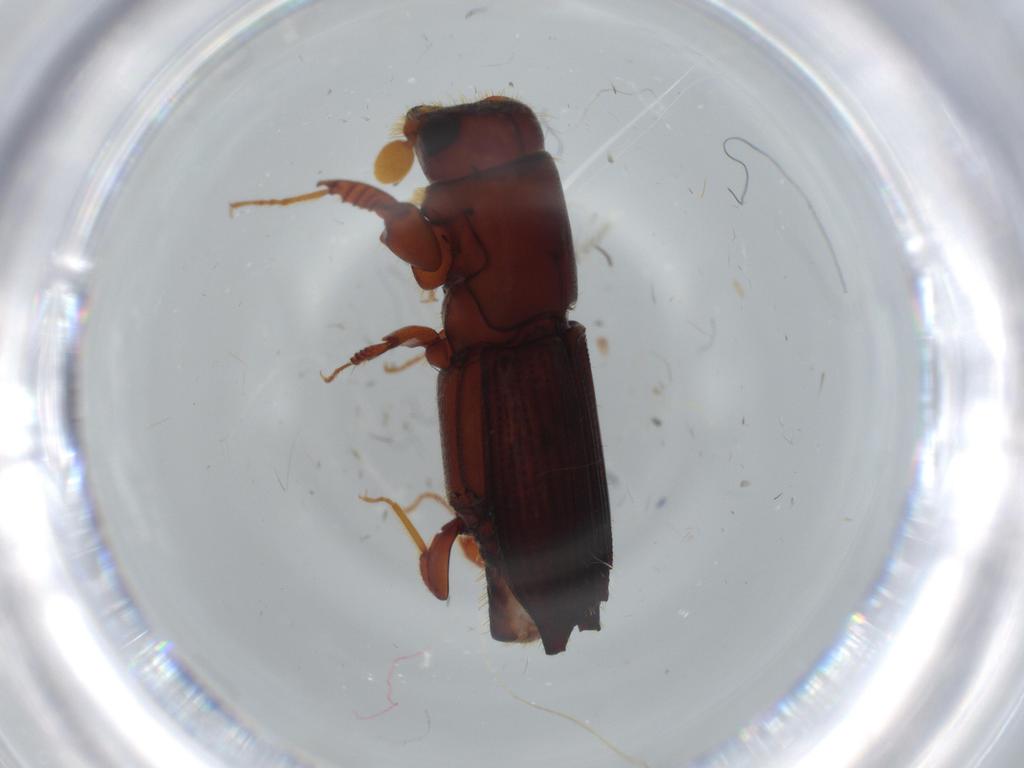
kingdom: Animalia
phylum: Arthropoda
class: Insecta
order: Coleoptera
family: Curculionidae
